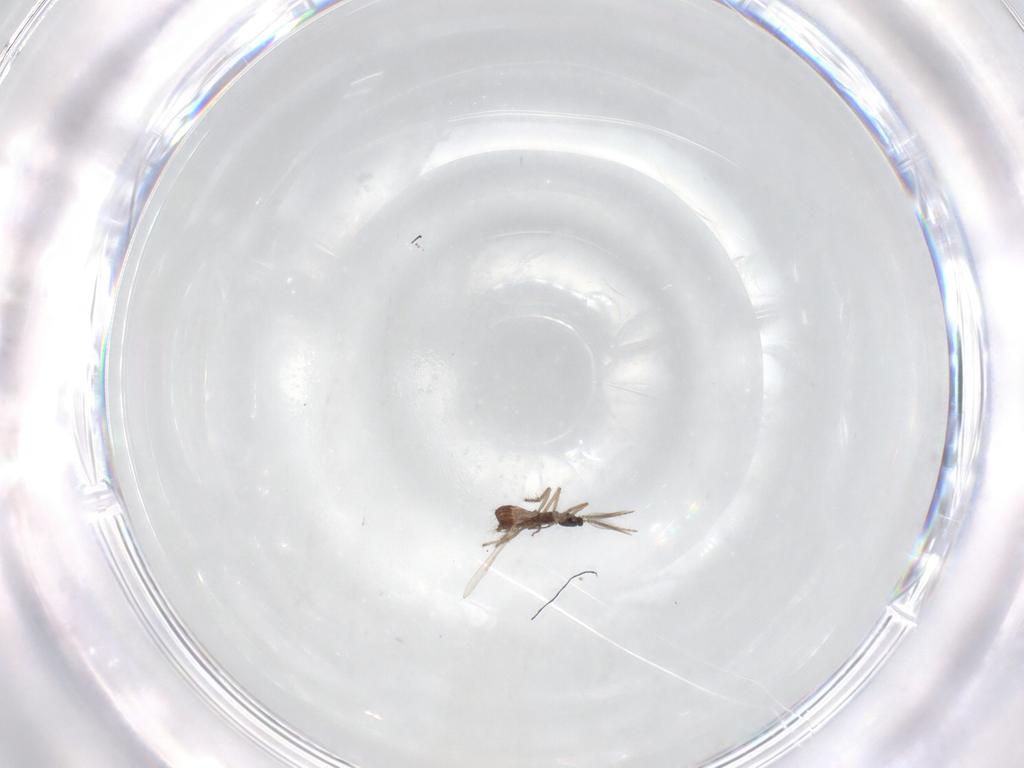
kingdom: Animalia
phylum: Arthropoda
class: Insecta
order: Diptera
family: Ceratopogonidae
